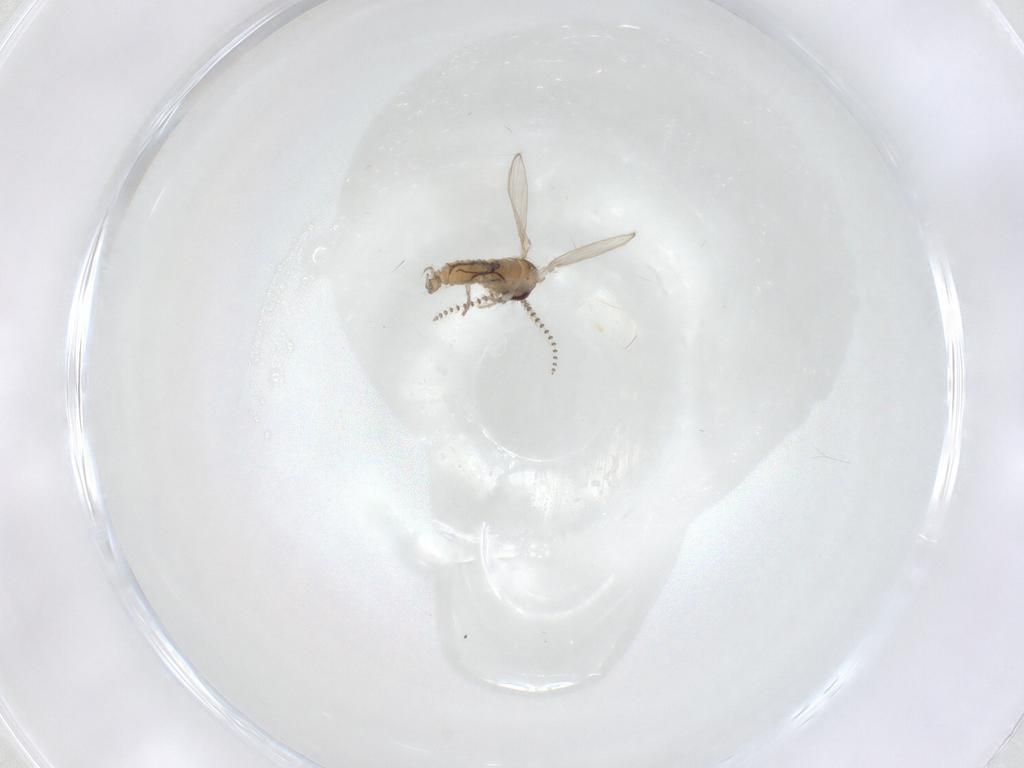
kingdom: Animalia
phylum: Arthropoda
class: Insecta
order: Diptera
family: Psychodidae
